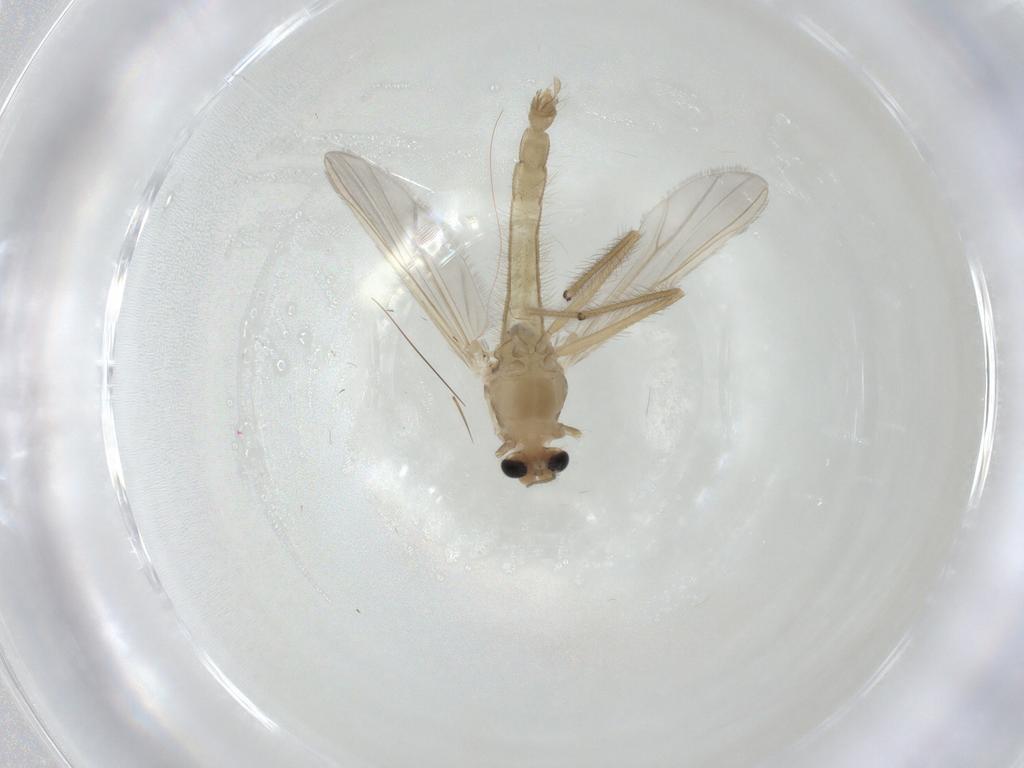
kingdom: Animalia
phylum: Arthropoda
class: Insecta
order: Diptera
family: Chironomidae
